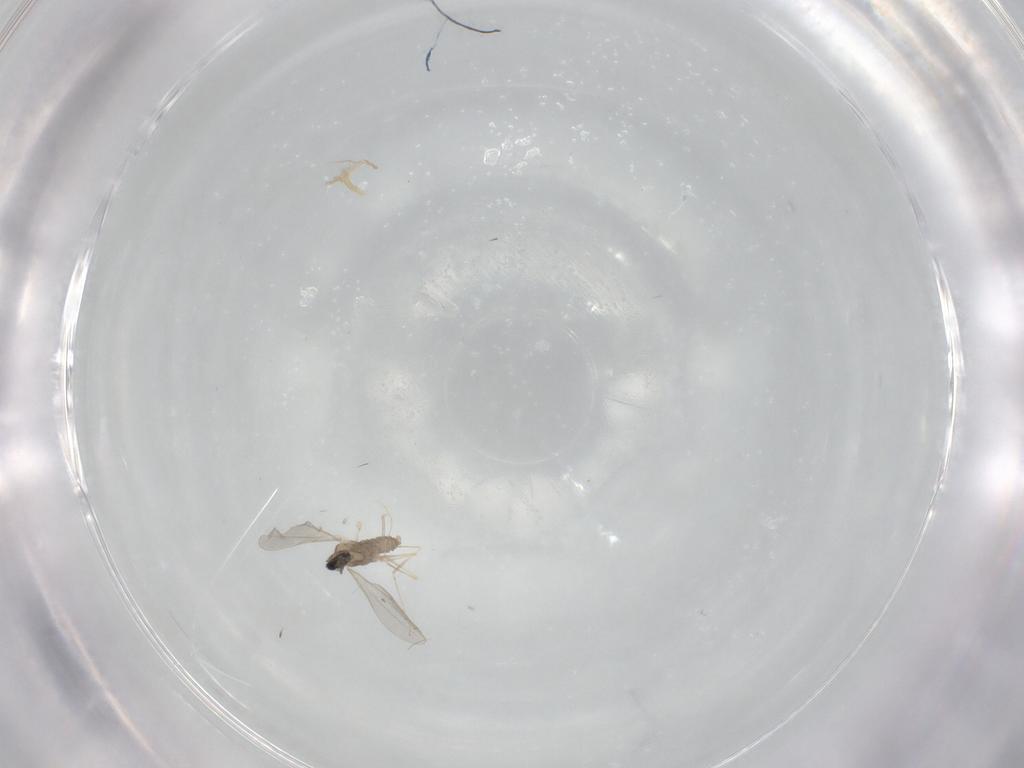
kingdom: Animalia
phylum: Arthropoda
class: Insecta
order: Diptera
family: Cecidomyiidae
